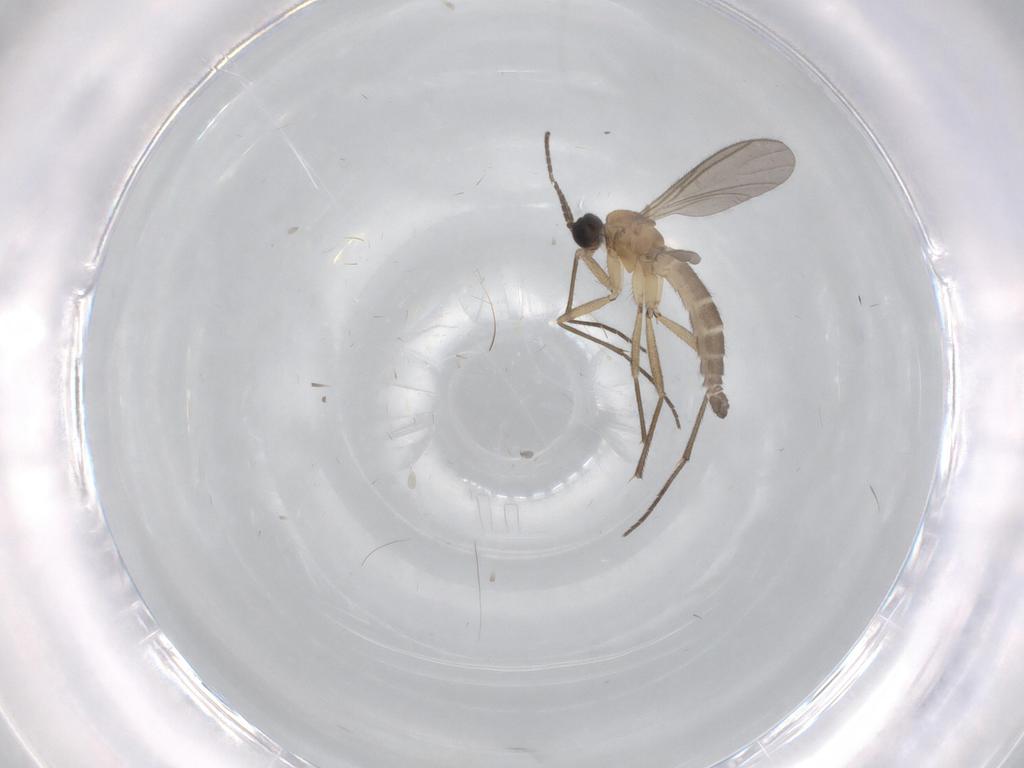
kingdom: Animalia
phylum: Arthropoda
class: Insecta
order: Diptera
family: Sciaridae
